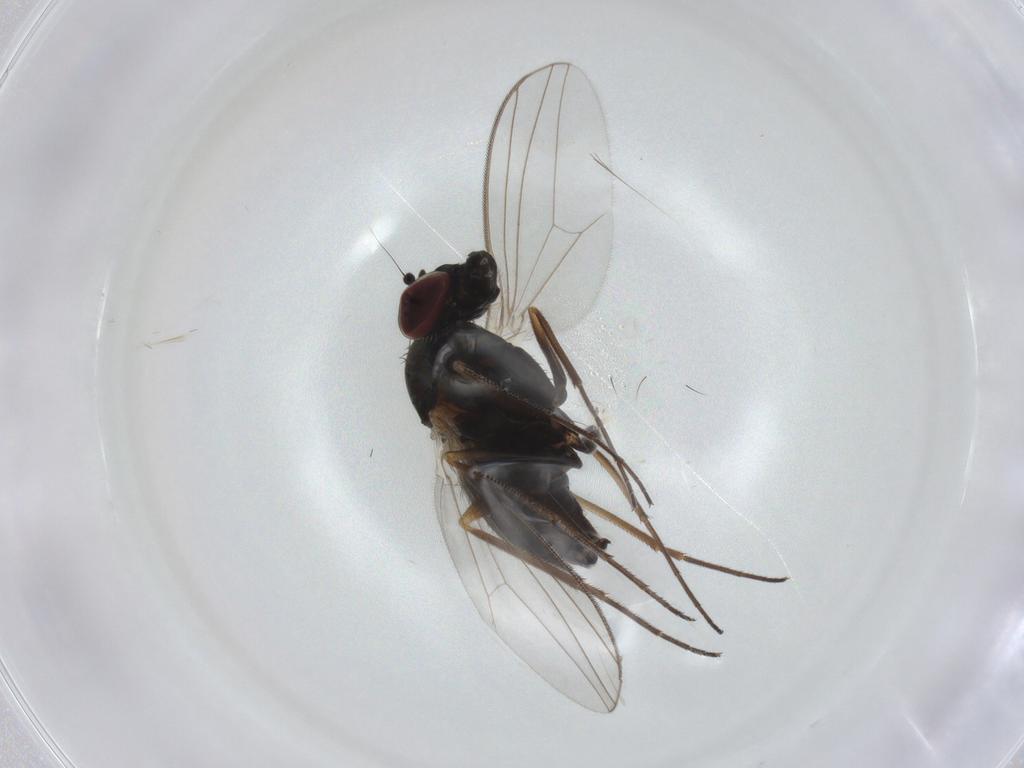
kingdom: Animalia
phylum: Arthropoda
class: Insecta
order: Diptera
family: Dolichopodidae
